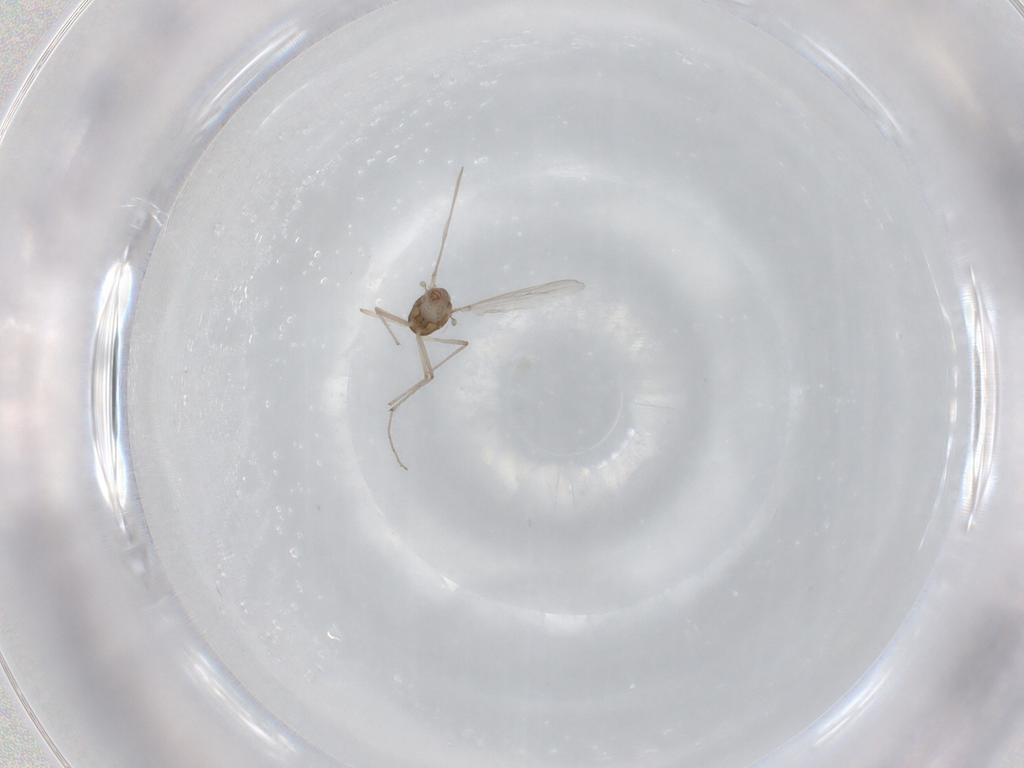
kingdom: Animalia
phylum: Arthropoda
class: Insecta
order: Diptera
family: Chironomidae
